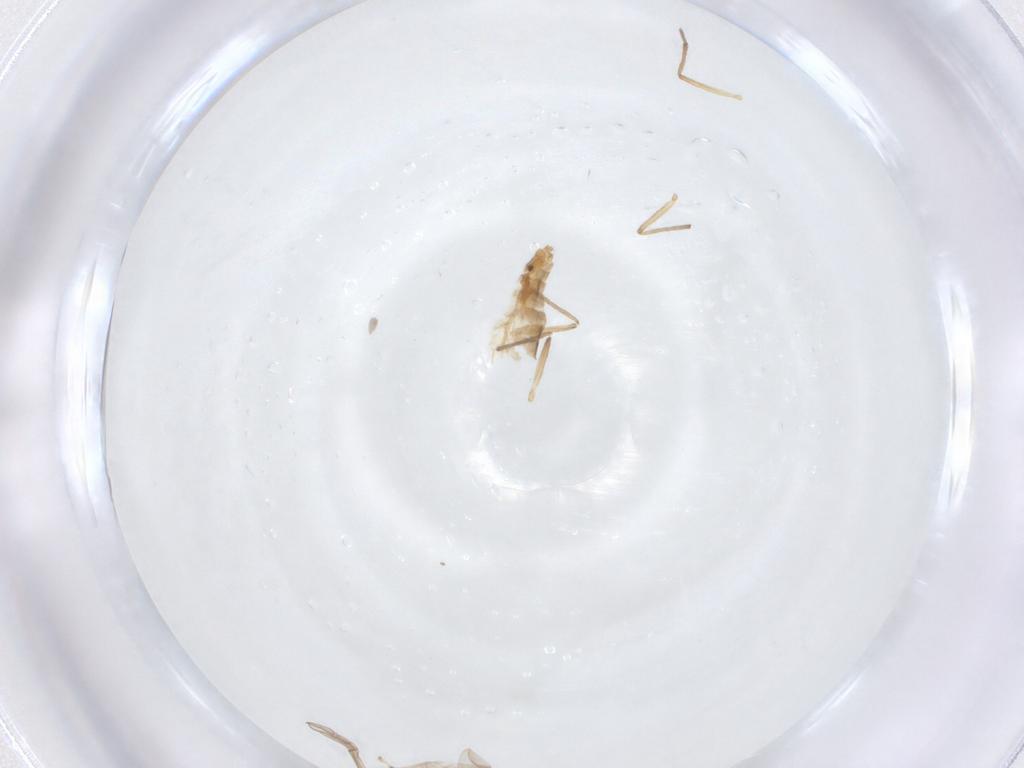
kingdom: Animalia
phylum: Arthropoda
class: Insecta
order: Diptera
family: Chironomidae
